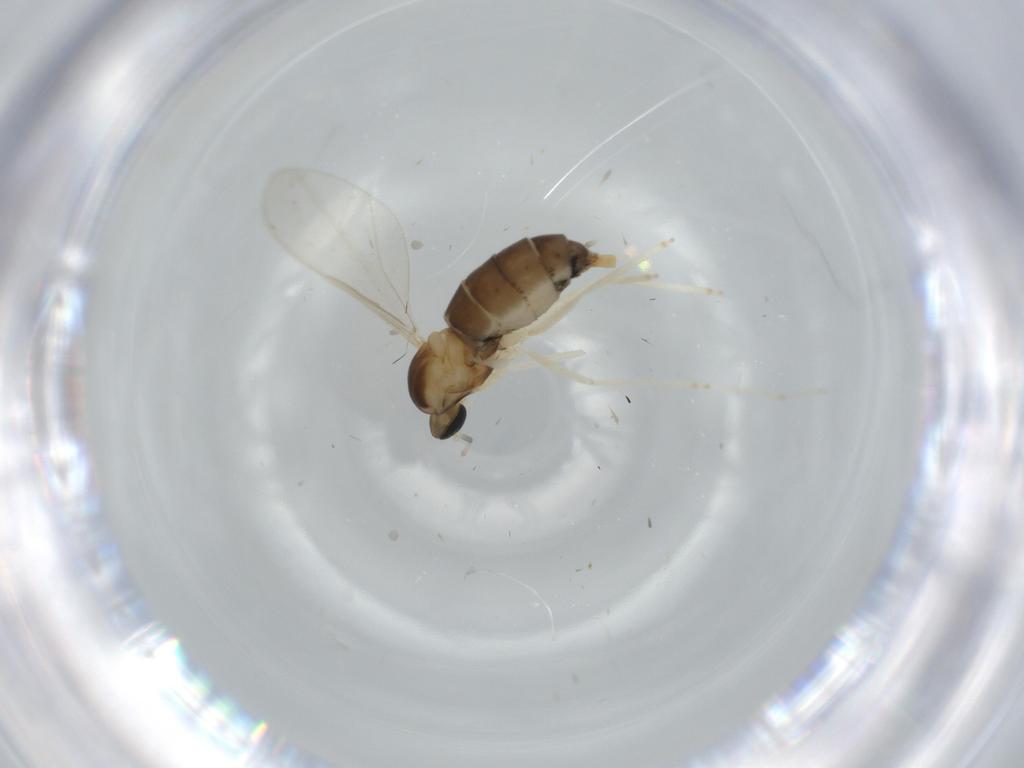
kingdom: Animalia
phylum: Arthropoda
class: Insecta
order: Diptera
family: Cecidomyiidae
